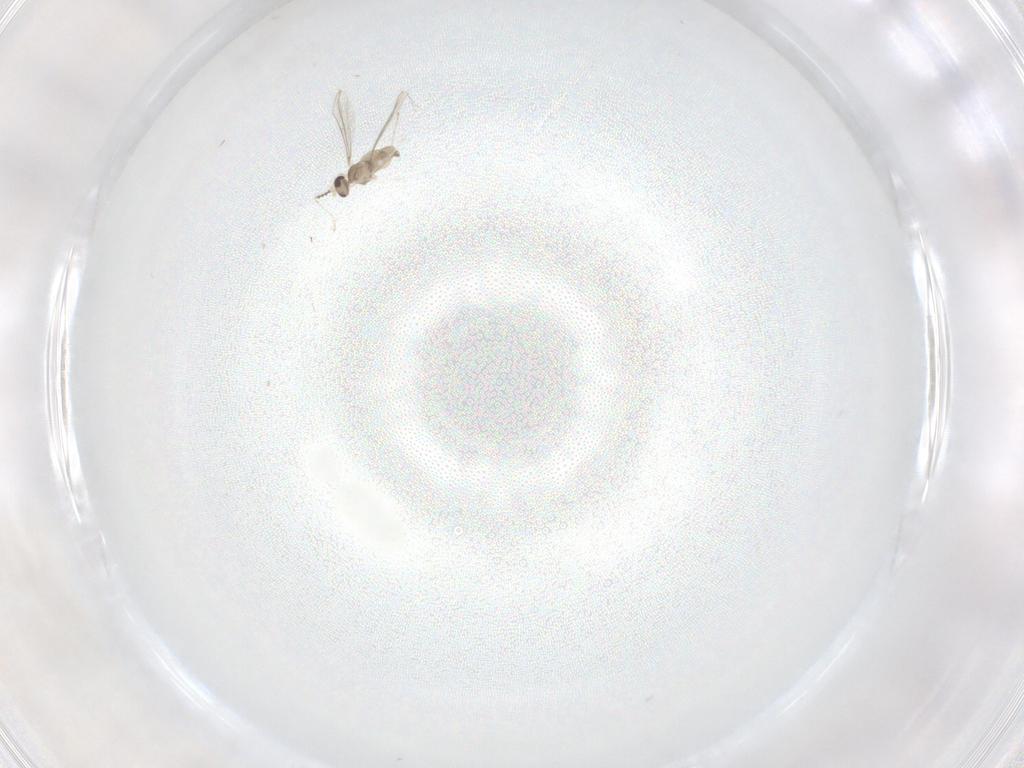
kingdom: Animalia
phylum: Arthropoda
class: Insecta
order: Diptera
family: Cecidomyiidae
